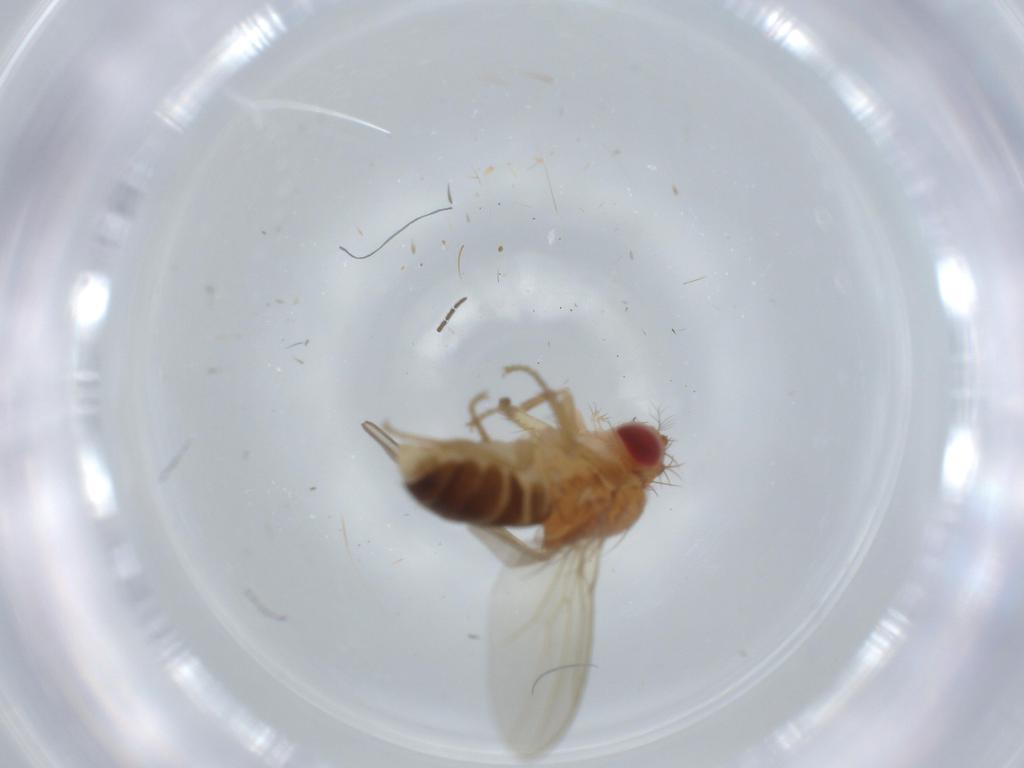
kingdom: Animalia
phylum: Arthropoda
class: Insecta
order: Diptera
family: Drosophilidae
